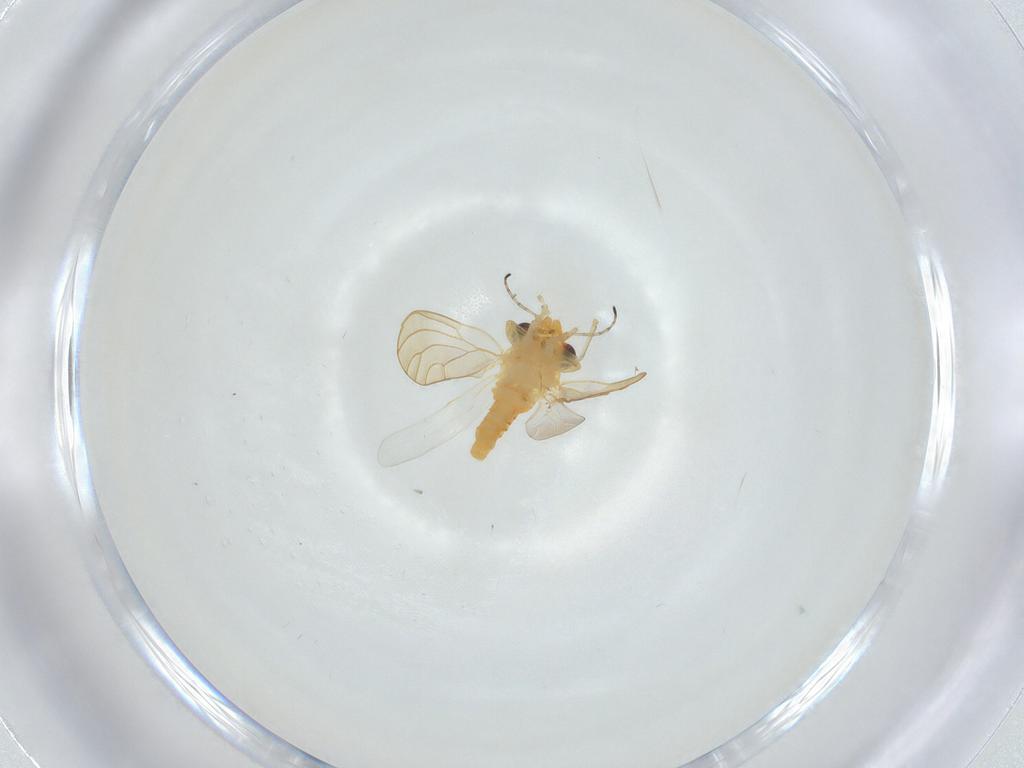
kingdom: Animalia
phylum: Arthropoda
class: Insecta
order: Hemiptera
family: Aphalaridae
